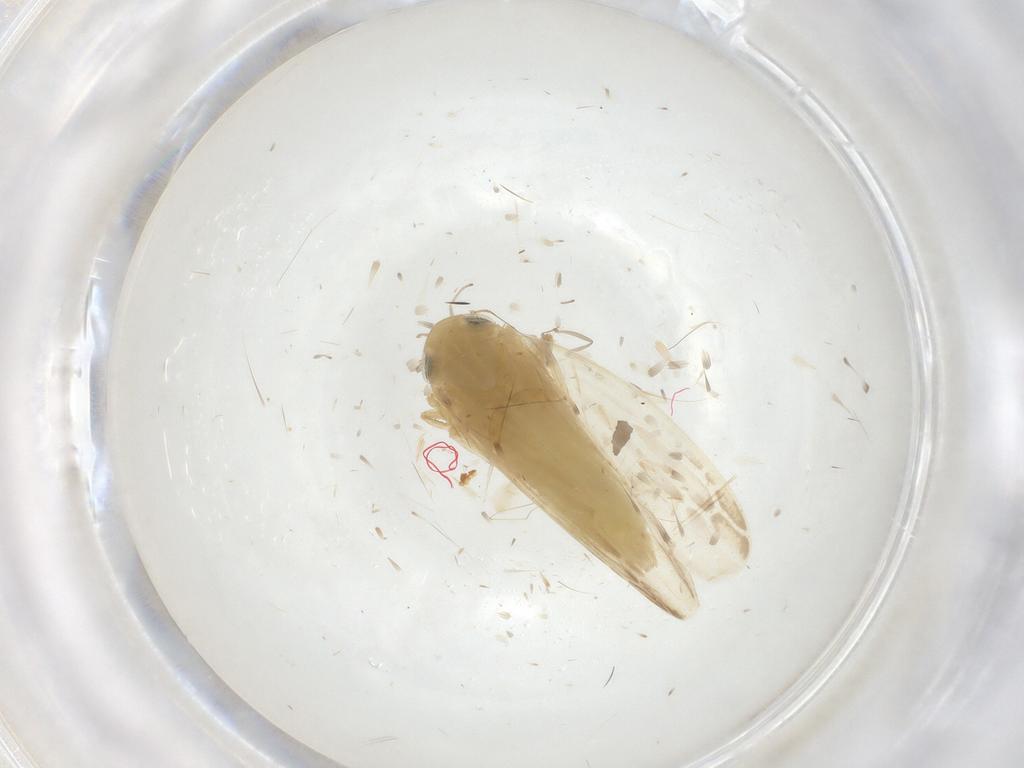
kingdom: Animalia
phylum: Arthropoda
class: Insecta
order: Hemiptera
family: Cicadellidae
